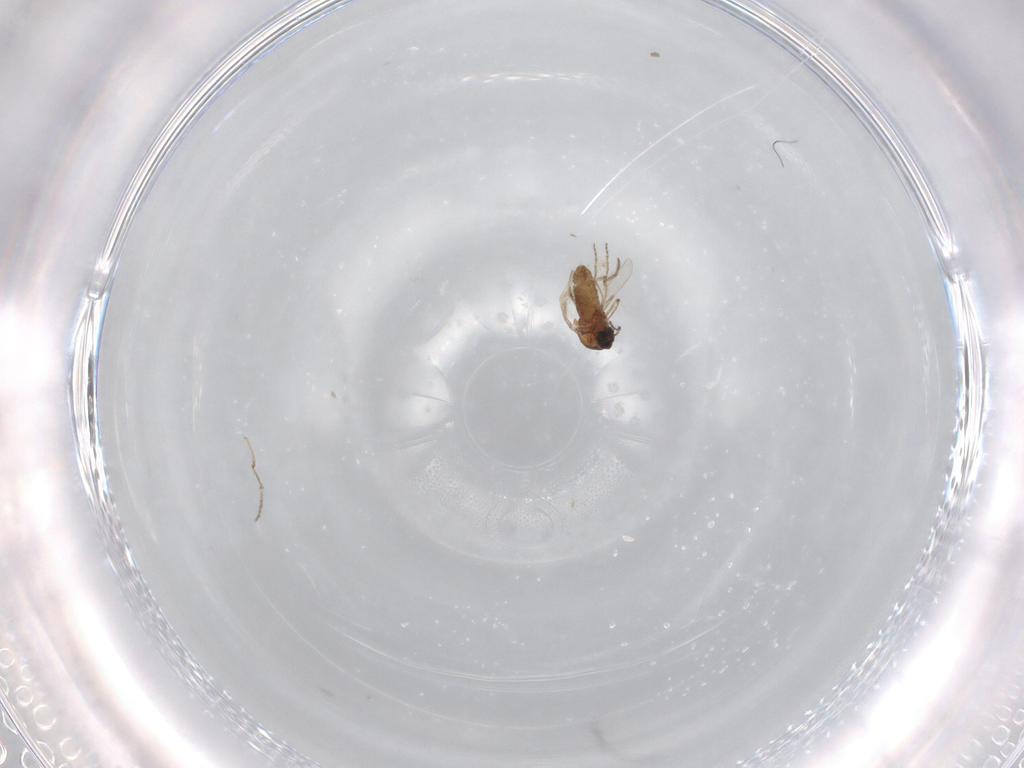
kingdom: Animalia
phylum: Arthropoda
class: Insecta
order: Diptera
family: Ceratopogonidae
